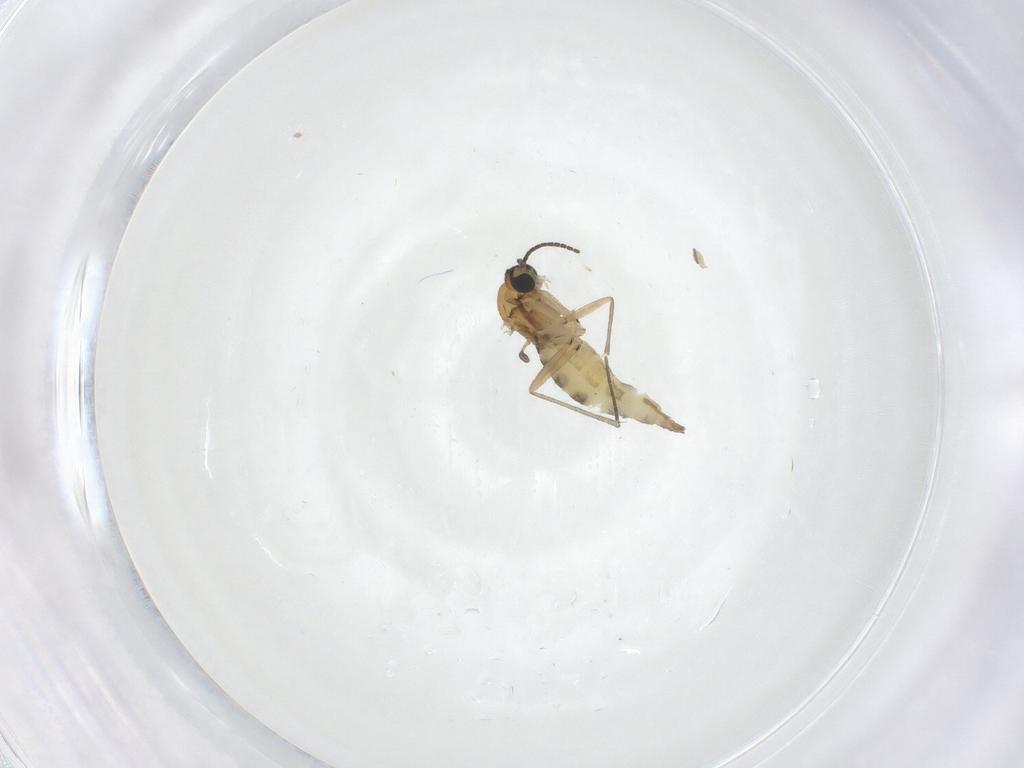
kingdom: Animalia
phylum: Arthropoda
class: Insecta
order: Diptera
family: Sciaridae
